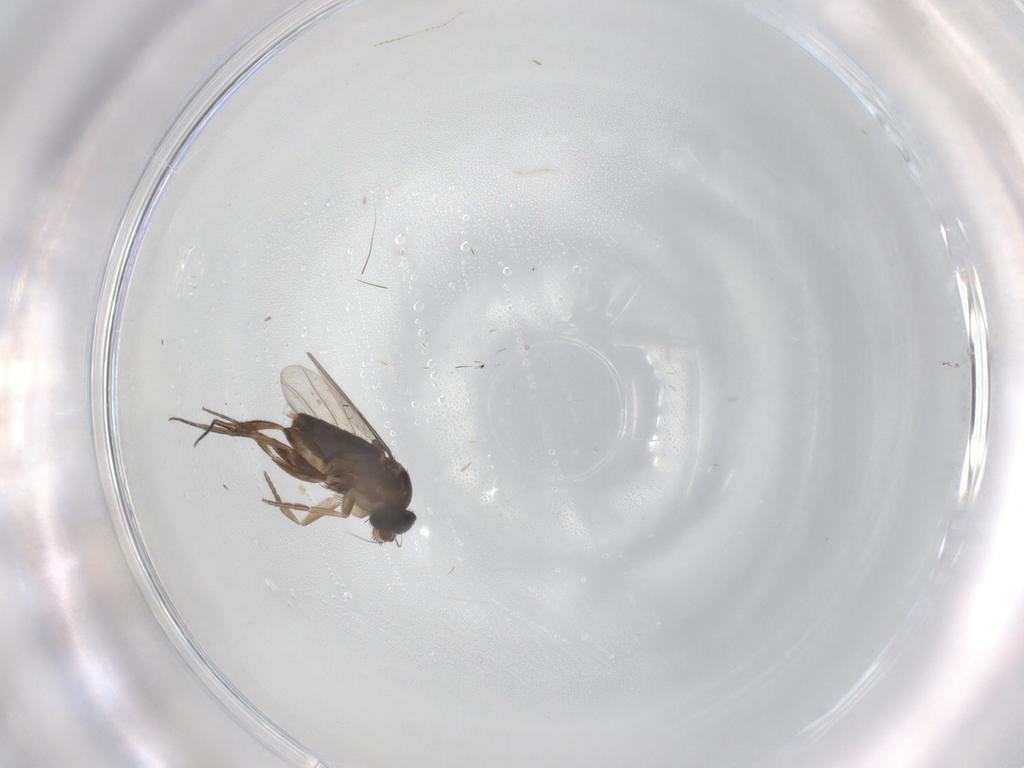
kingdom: Animalia
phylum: Arthropoda
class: Insecta
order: Diptera
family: Phoridae
